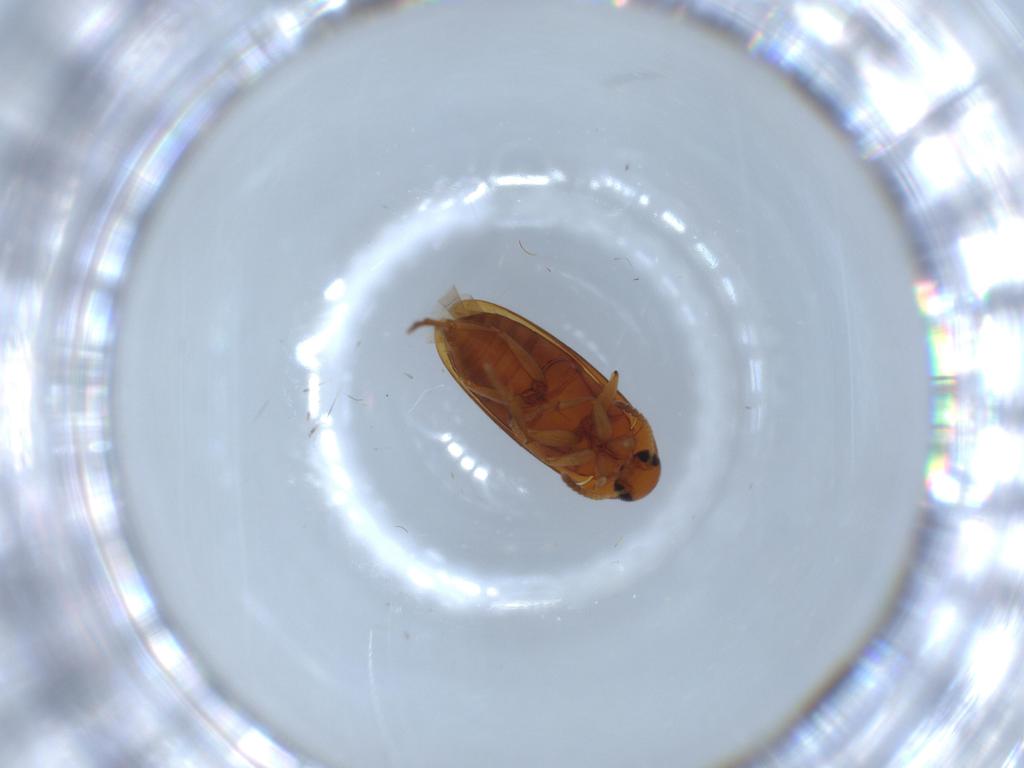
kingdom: Animalia
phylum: Arthropoda
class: Insecta
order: Coleoptera
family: Scraptiidae
